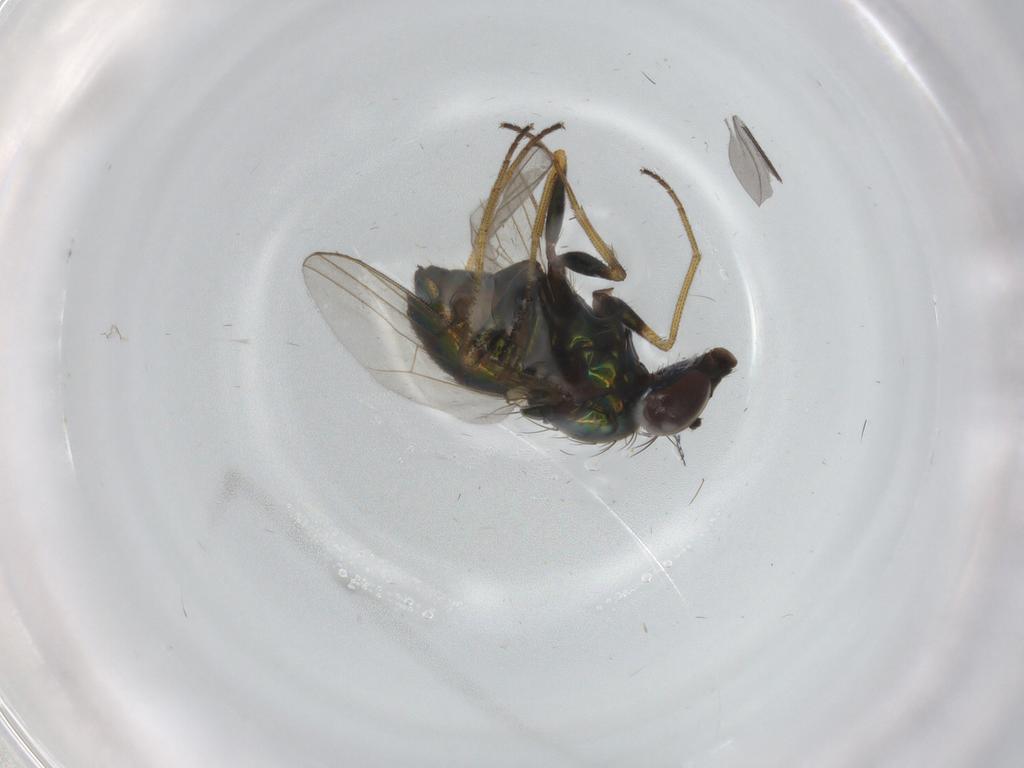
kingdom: Animalia
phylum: Arthropoda
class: Insecta
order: Diptera
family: Dolichopodidae
